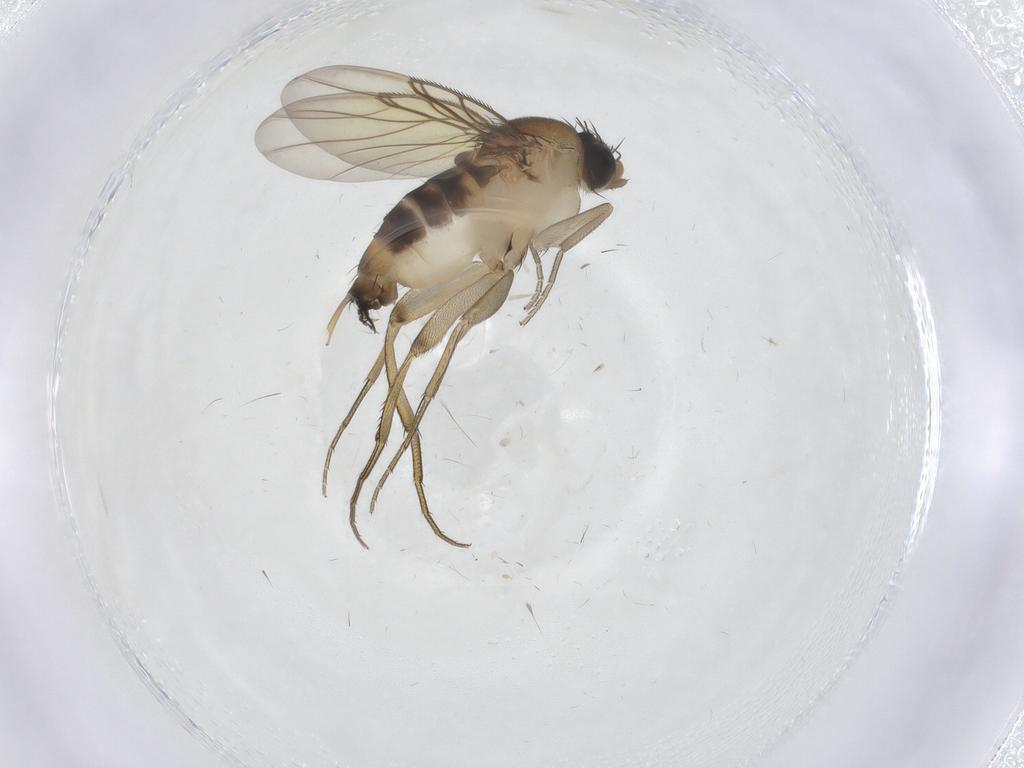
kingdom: Animalia
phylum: Arthropoda
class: Insecta
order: Diptera
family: Phoridae
